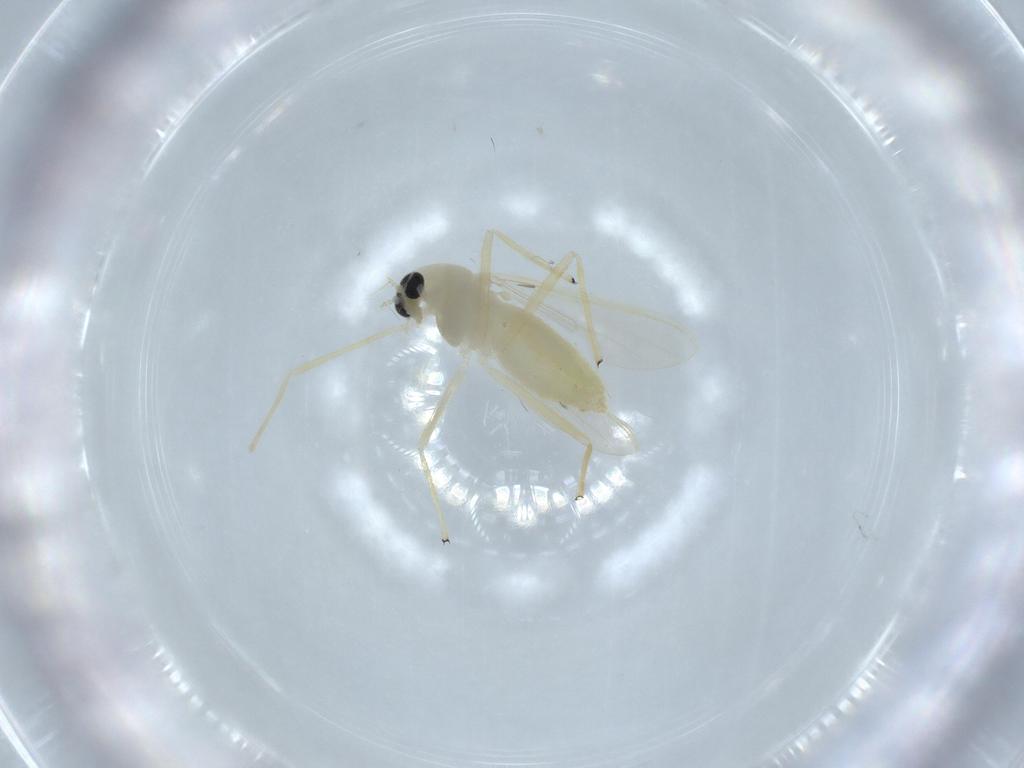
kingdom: Animalia
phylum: Arthropoda
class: Insecta
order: Diptera
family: Chironomidae
